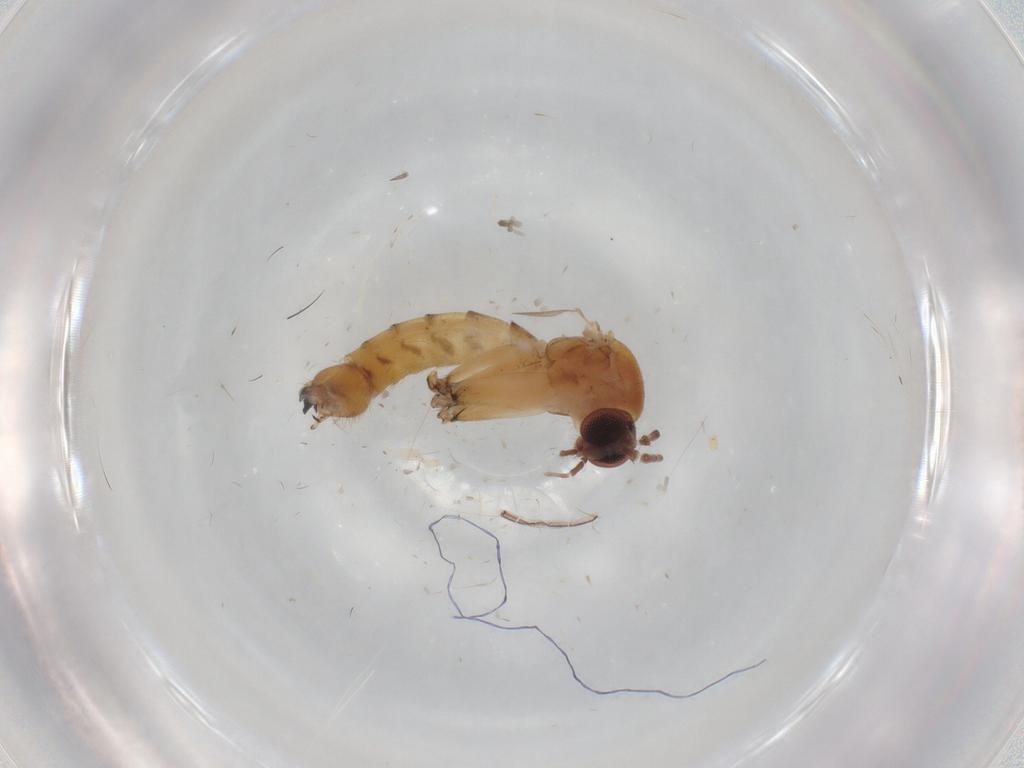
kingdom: Animalia
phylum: Arthropoda
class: Insecta
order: Diptera
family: Mycetophilidae
